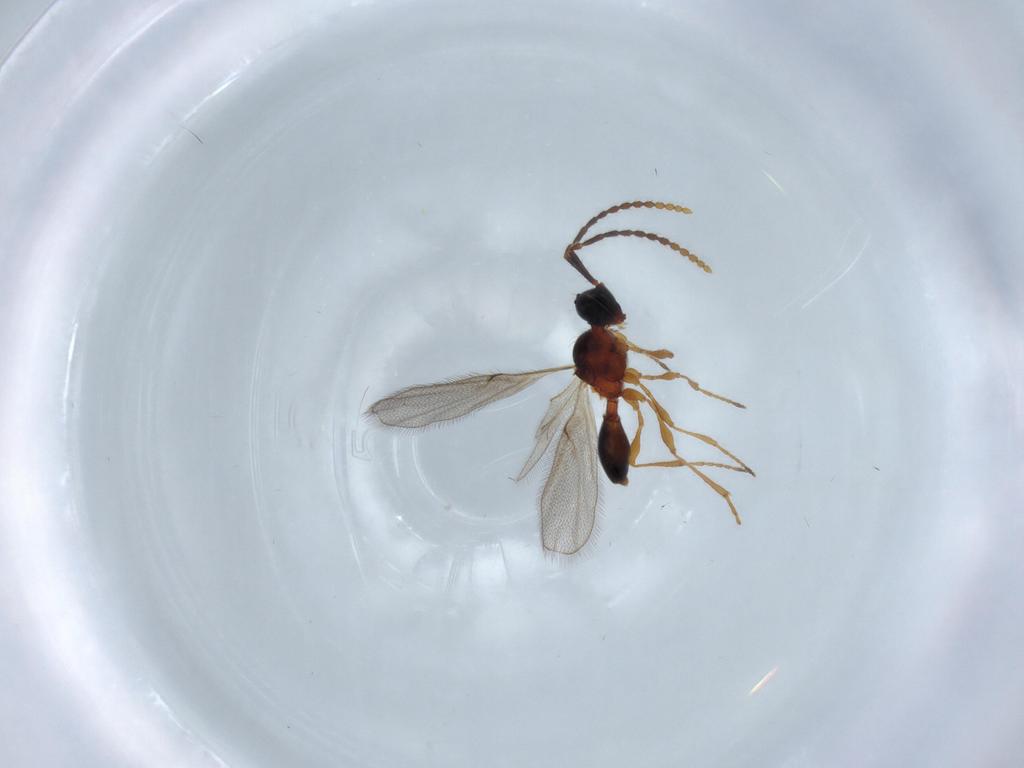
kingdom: Animalia
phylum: Arthropoda
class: Insecta
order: Hymenoptera
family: Diapriidae
